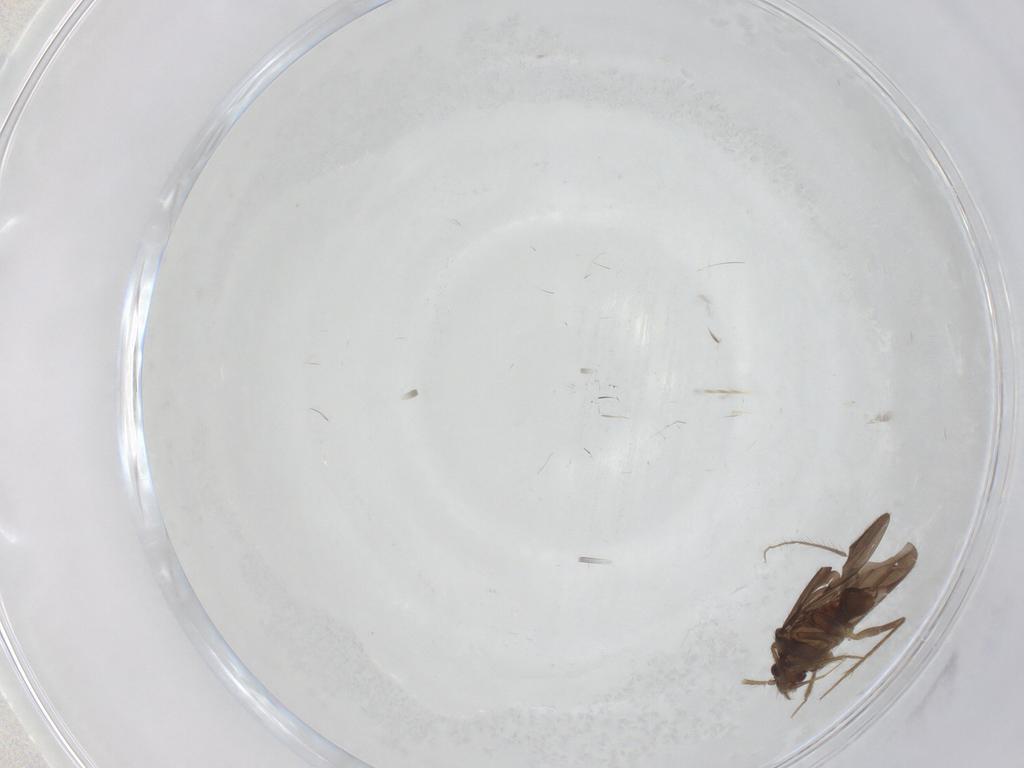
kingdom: Animalia
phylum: Arthropoda
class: Insecta
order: Hemiptera
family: Ceratocombidae
